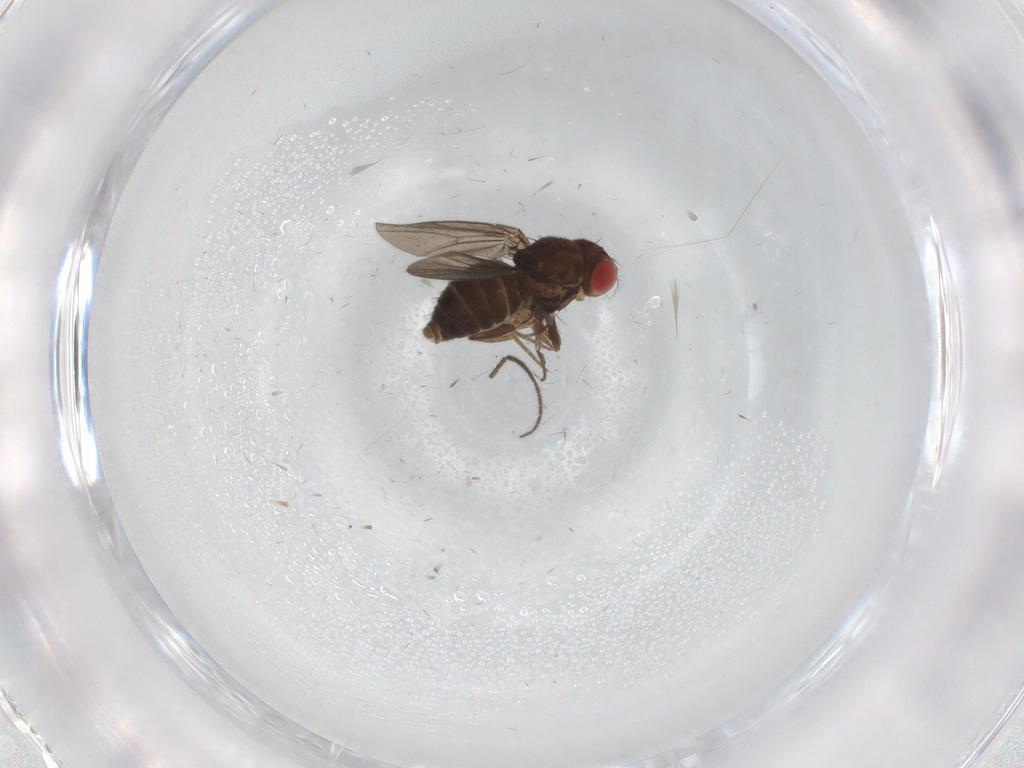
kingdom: Animalia
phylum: Arthropoda
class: Insecta
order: Diptera
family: Drosophilidae
